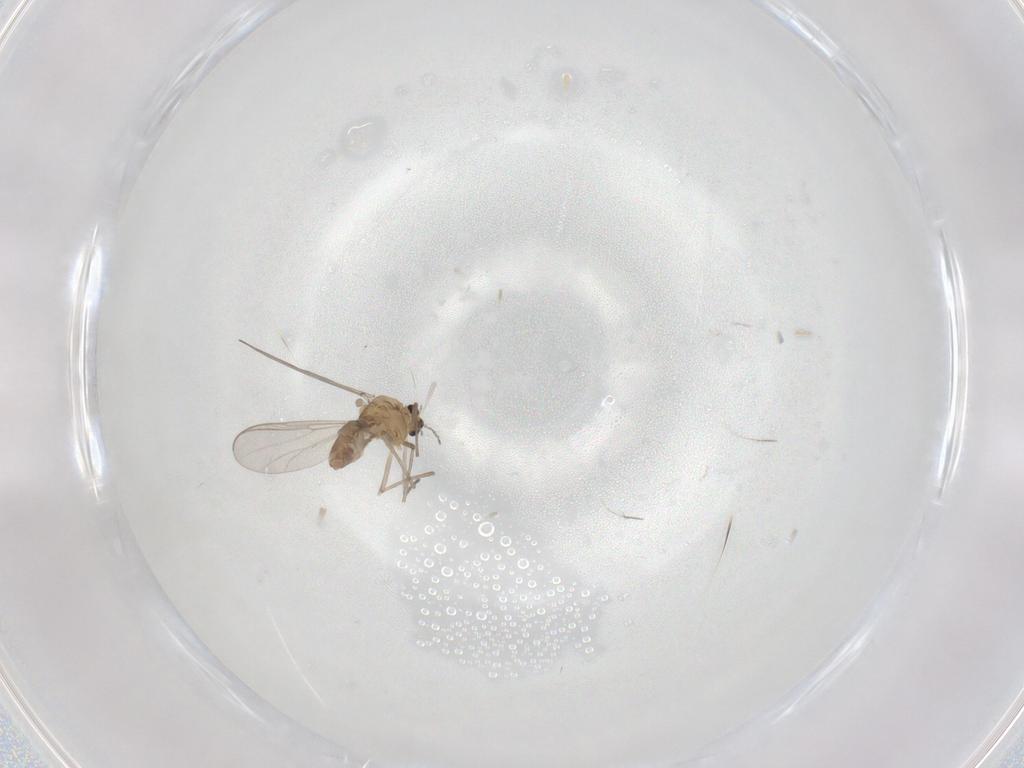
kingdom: Animalia
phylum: Arthropoda
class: Insecta
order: Diptera
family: Chironomidae
